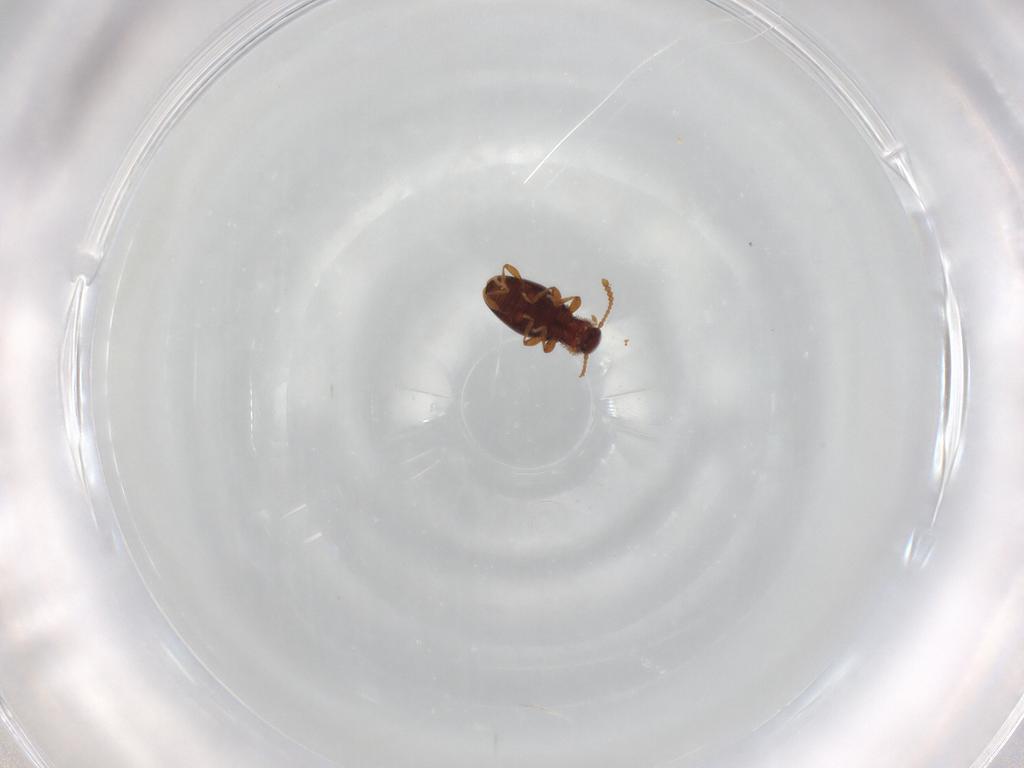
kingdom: Animalia
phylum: Arthropoda
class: Insecta
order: Coleoptera
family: Staphylinidae
